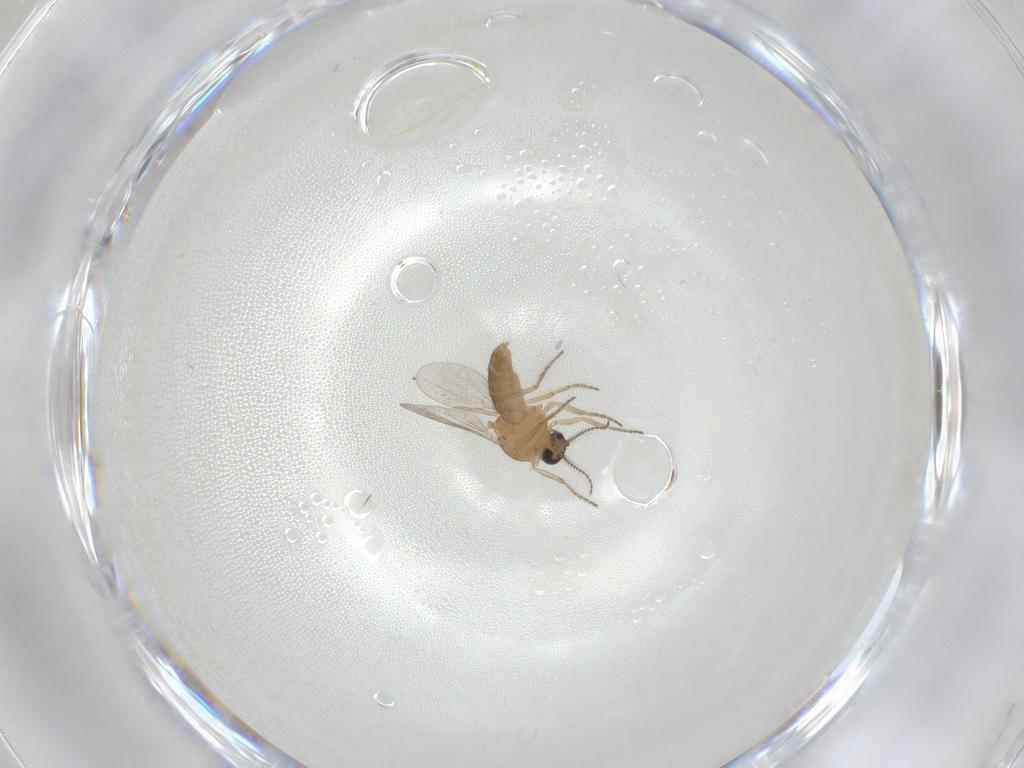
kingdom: Animalia
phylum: Arthropoda
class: Insecta
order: Diptera
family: Ceratopogonidae
